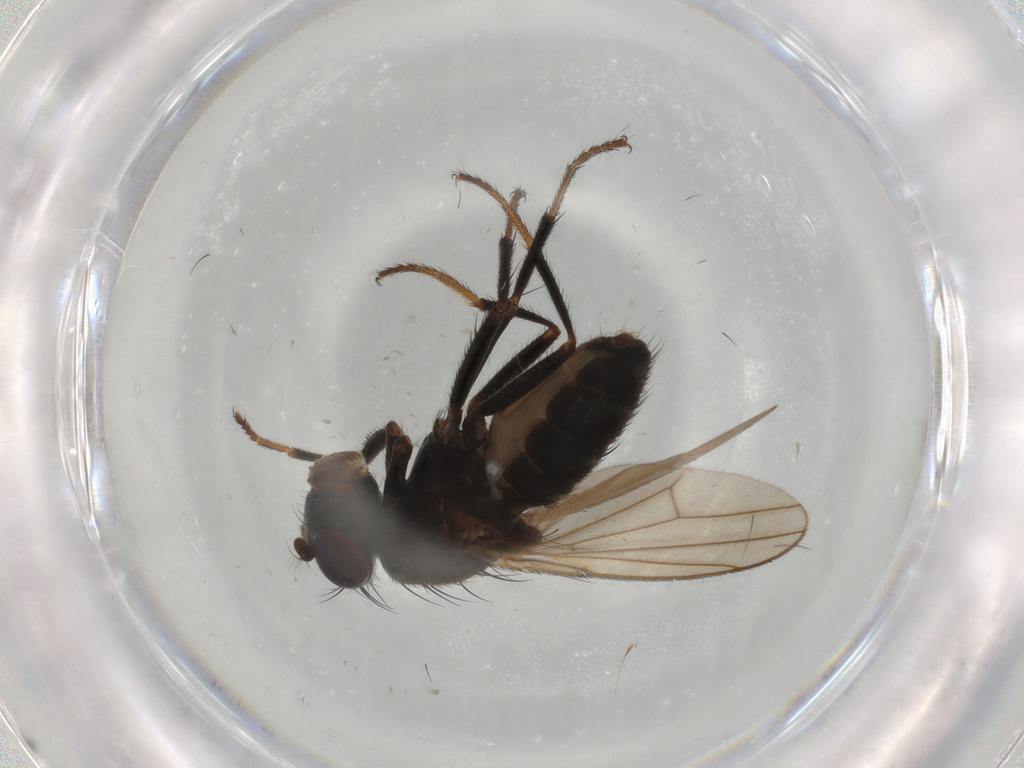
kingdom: Animalia
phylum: Arthropoda
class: Insecta
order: Diptera
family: Ephydridae
